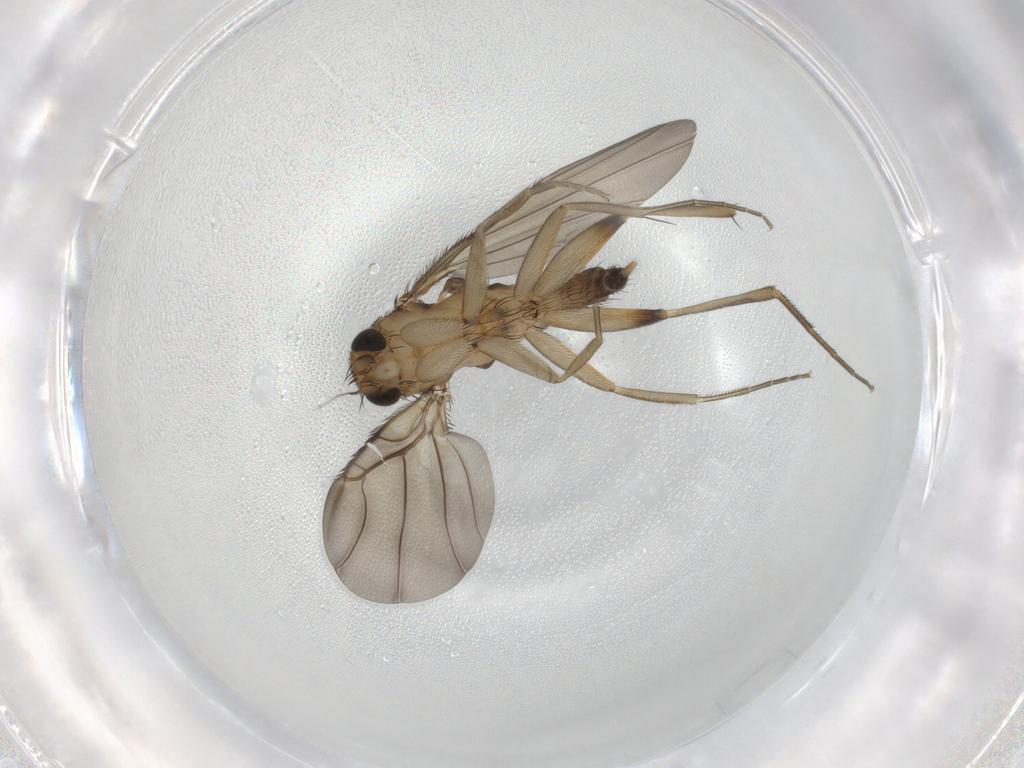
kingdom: Animalia
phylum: Arthropoda
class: Insecta
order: Diptera
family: Phoridae
